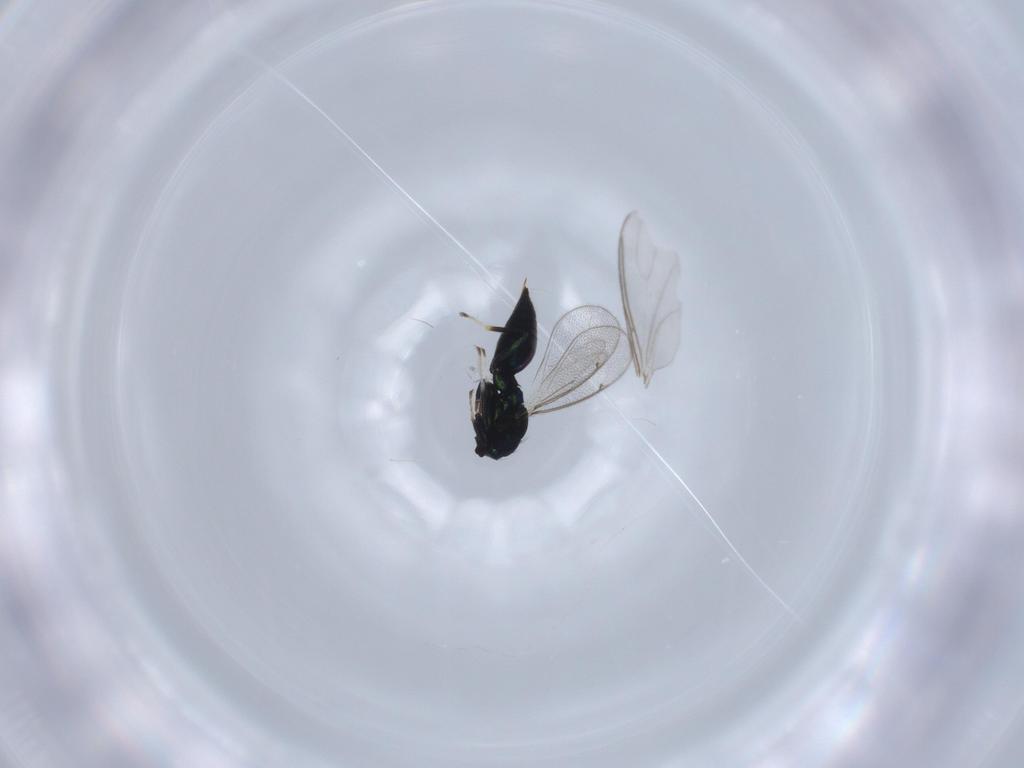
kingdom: Animalia
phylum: Arthropoda
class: Insecta
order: Hymenoptera
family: Eulophidae
